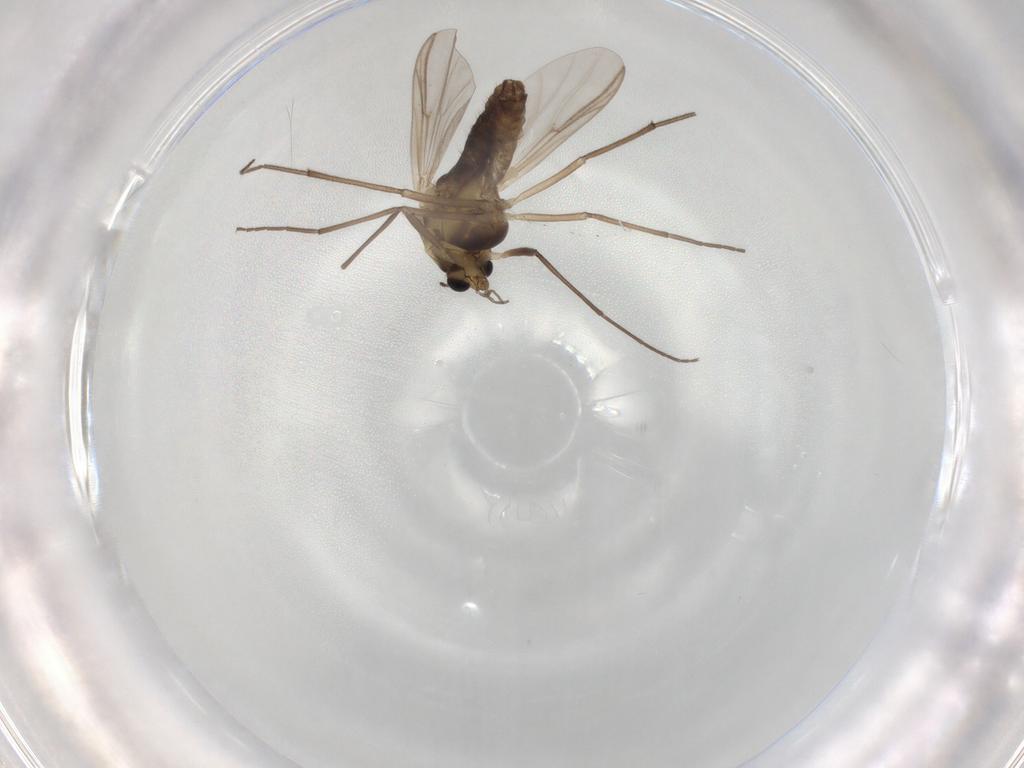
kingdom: Animalia
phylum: Arthropoda
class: Insecta
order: Diptera
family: Chironomidae
